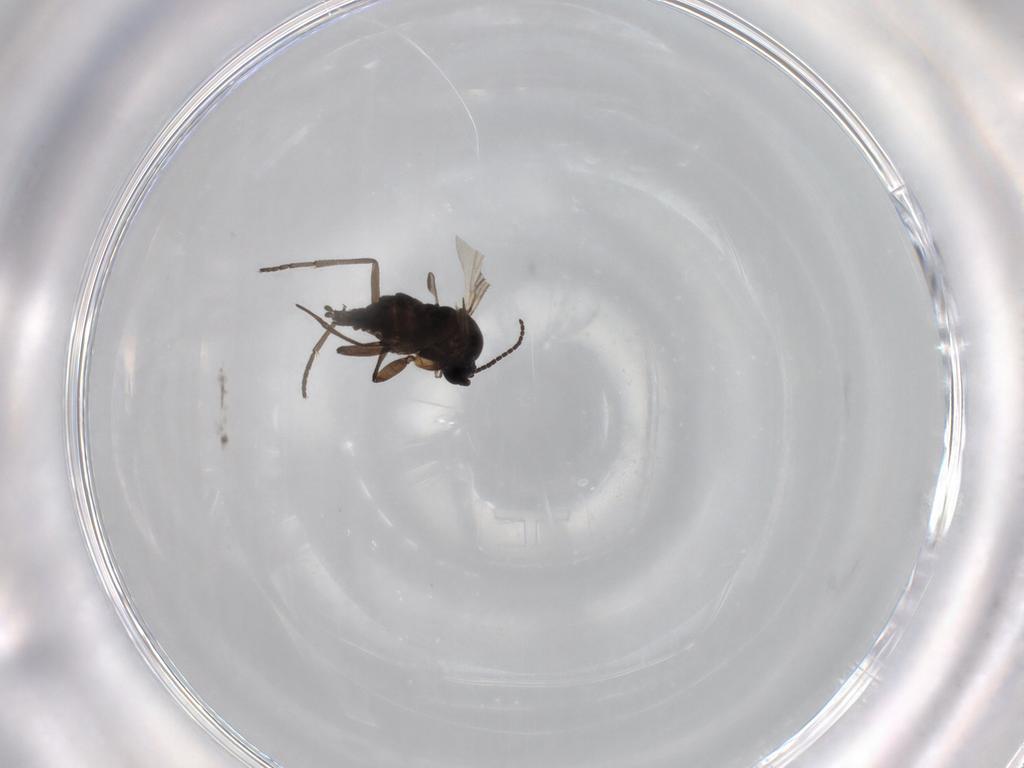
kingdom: Animalia
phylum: Arthropoda
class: Insecta
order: Diptera
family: Sciaridae
